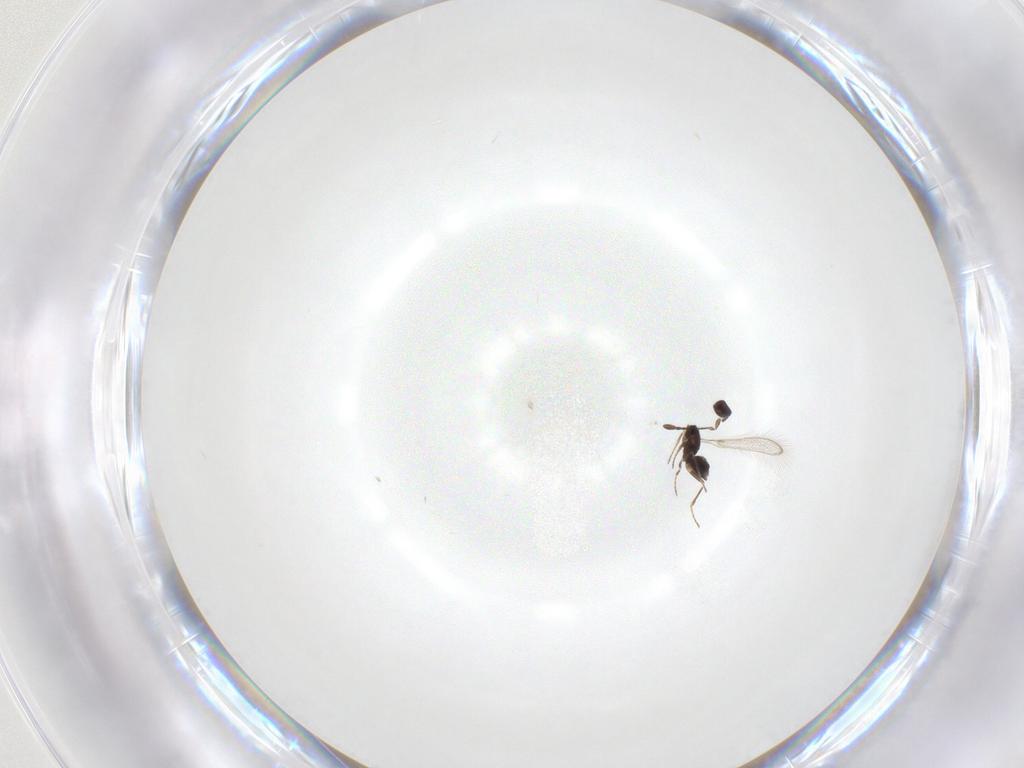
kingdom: Animalia
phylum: Arthropoda
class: Insecta
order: Hymenoptera
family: Mymaridae
